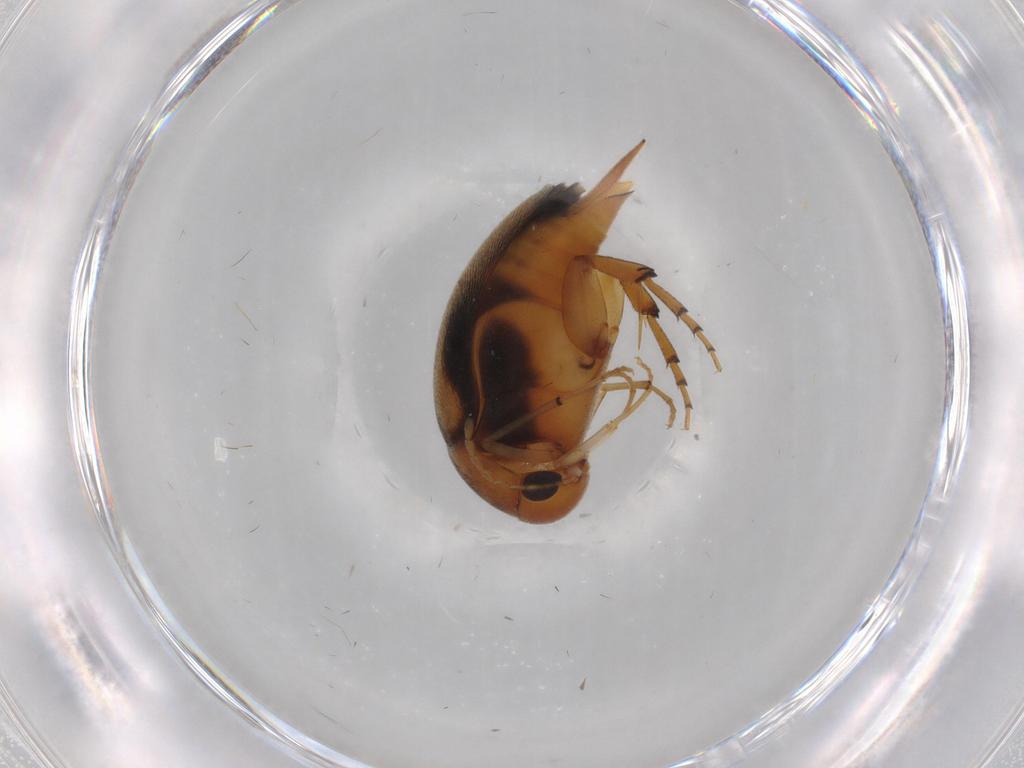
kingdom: Animalia
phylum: Arthropoda
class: Insecta
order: Coleoptera
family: Mordellidae
